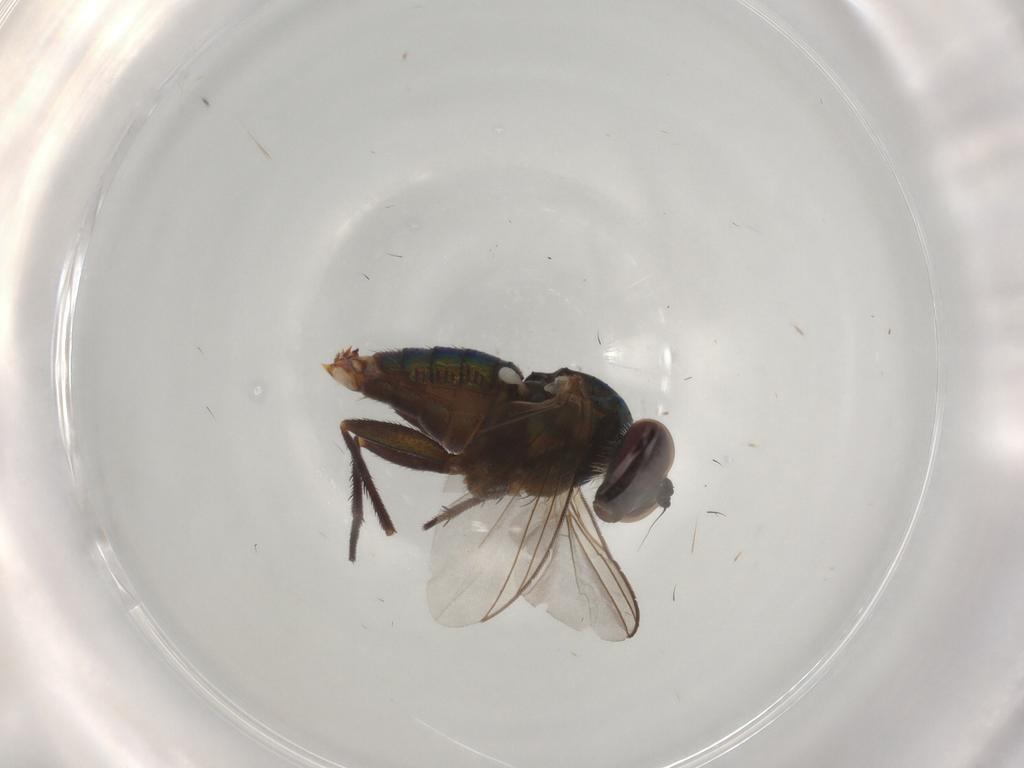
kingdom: Animalia
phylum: Arthropoda
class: Insecta
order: Diptera
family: Dolichopodidae
